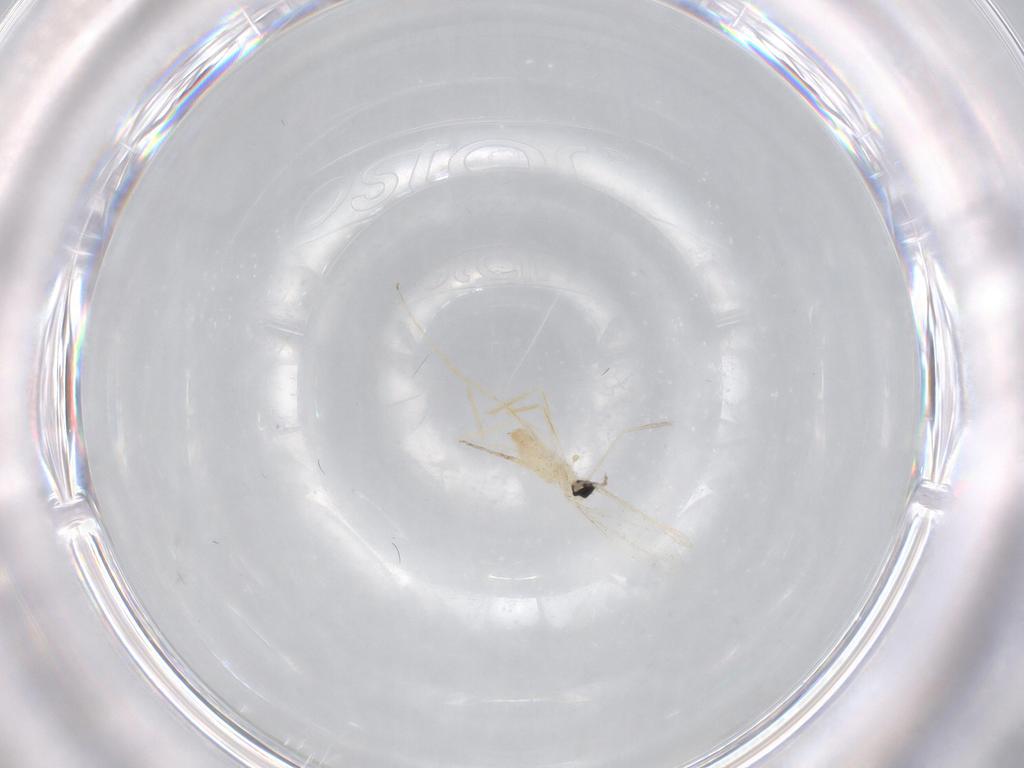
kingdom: Animalia
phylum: Arthropoda
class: Insecta
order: Diptera
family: Cecidomyiidae
